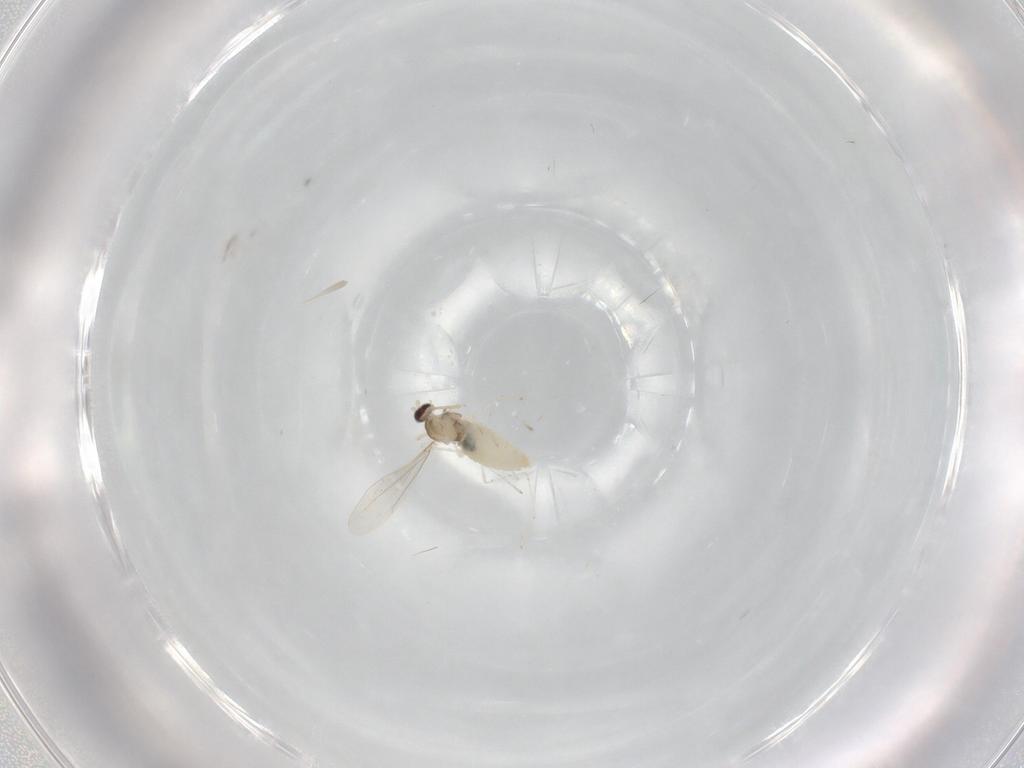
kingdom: Animalia
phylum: Arthropoda
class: Insecta
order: Diptera
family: Cecidomyiidae
